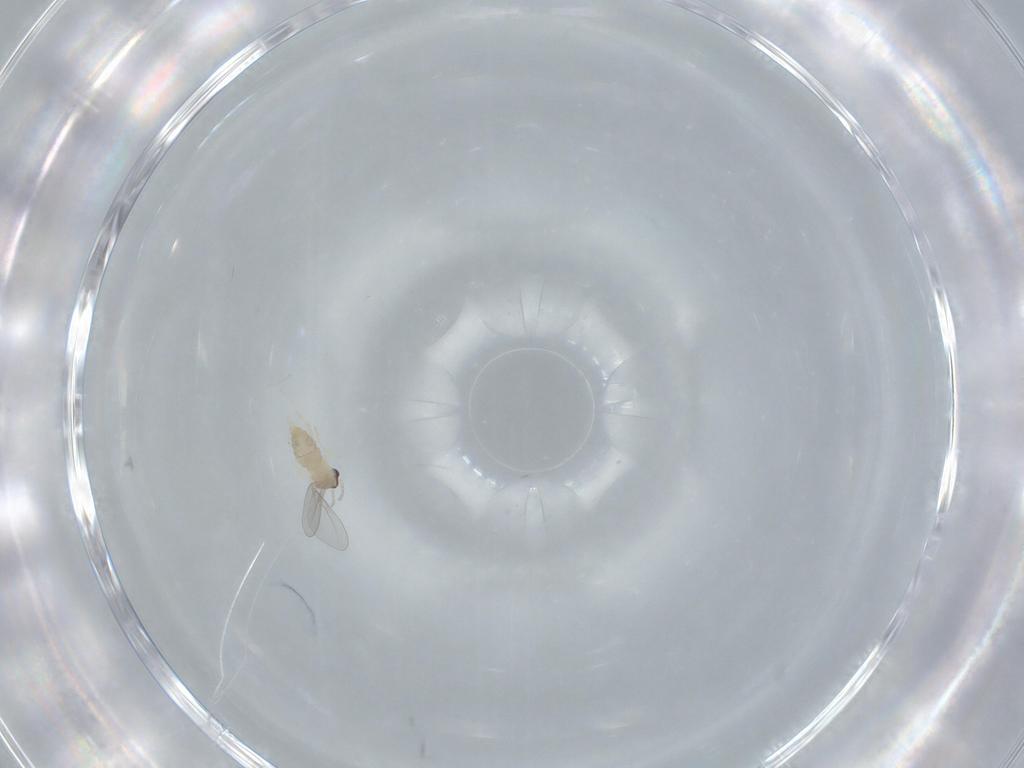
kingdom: Animalia
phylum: Arthropoda
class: Insecta
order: Diptera
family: Cecidomyiidae
